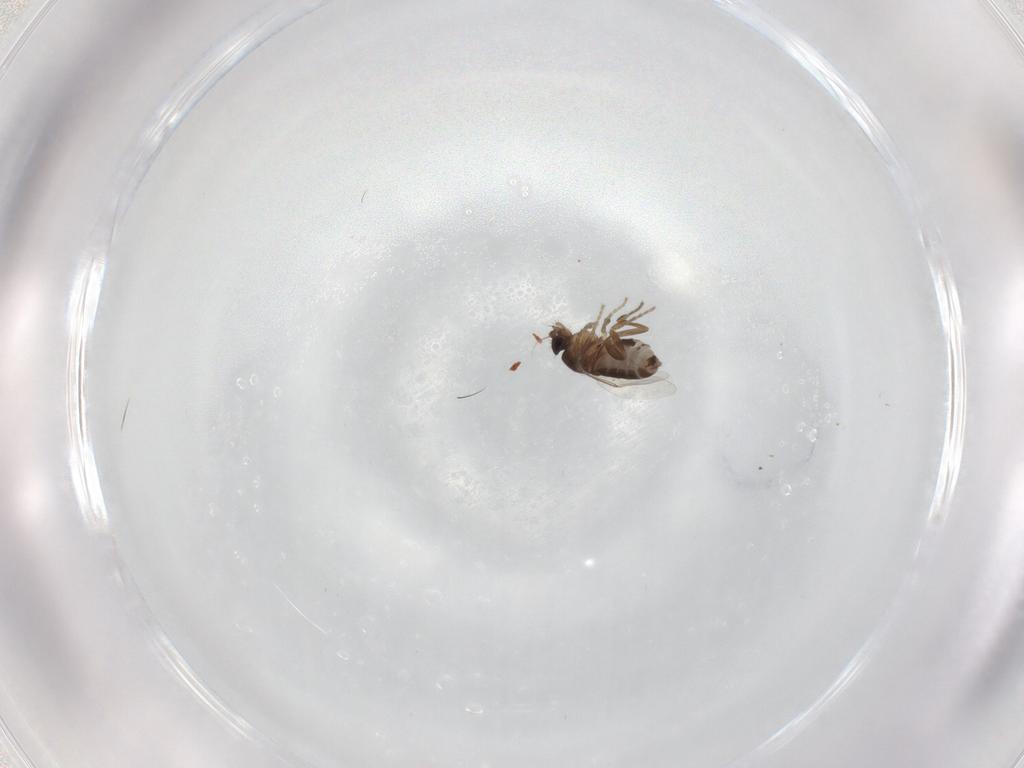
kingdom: Animalia
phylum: Arthropoda
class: Insecta
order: Diptera
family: Phoridae
